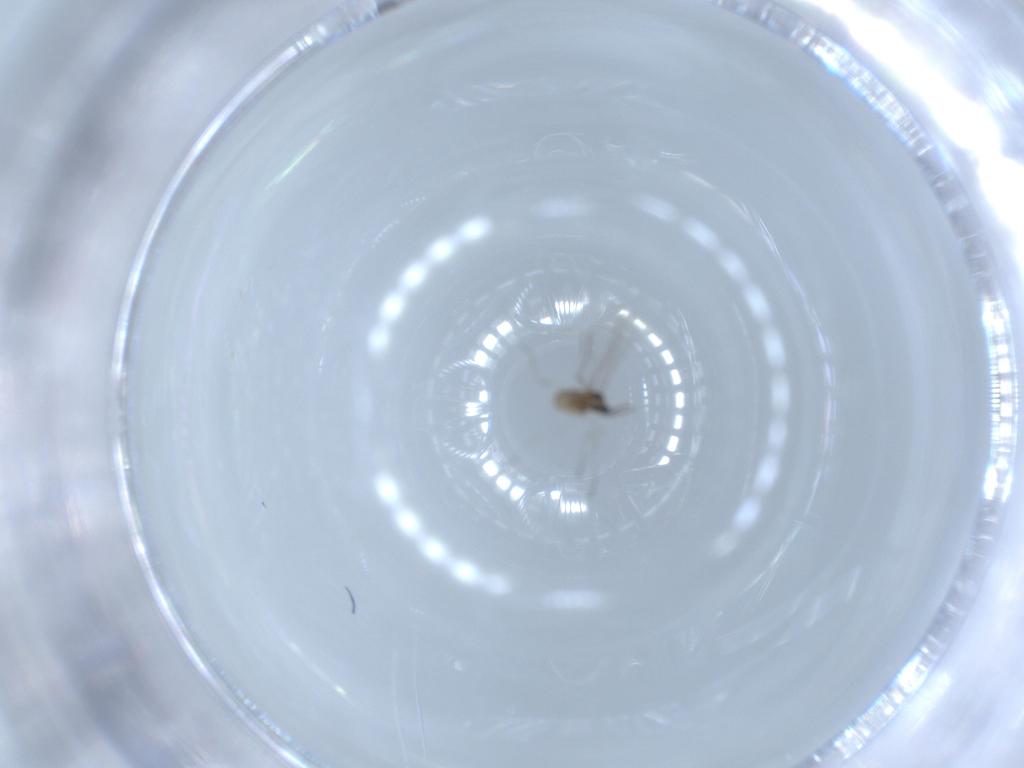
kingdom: Animalia
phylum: Arthropoda
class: Insecta
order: Diptera
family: Cecidomyiidae
